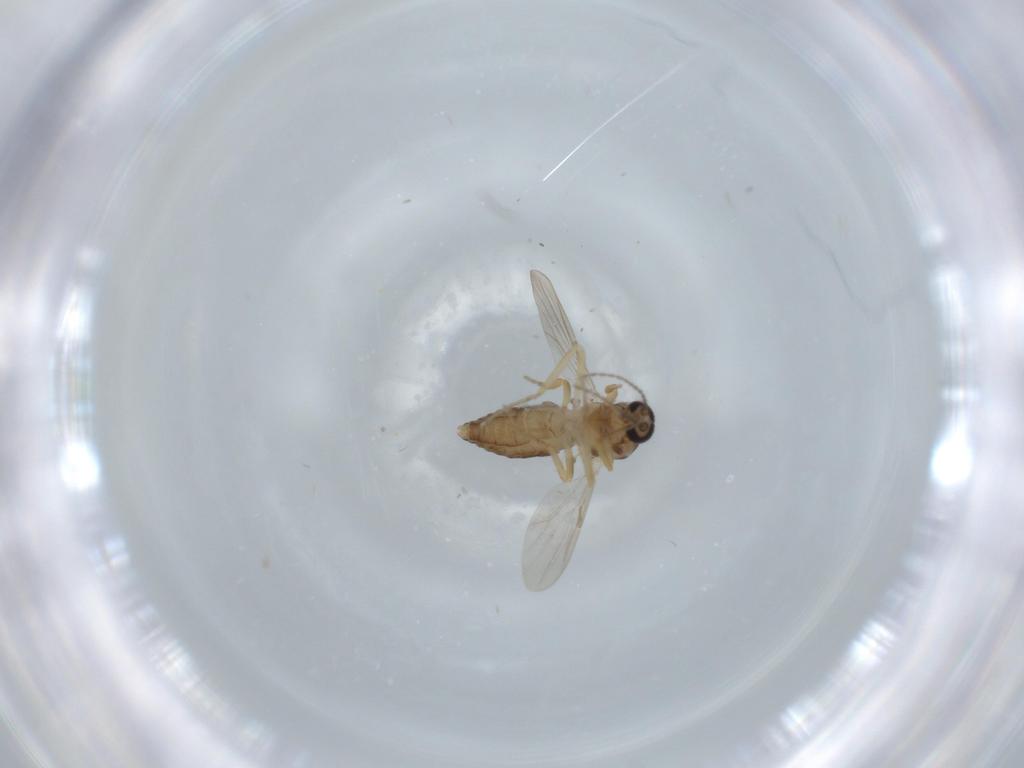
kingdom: Animalia
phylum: Arthropoda
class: Insecta
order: Diptera
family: Ceratopogonidae
